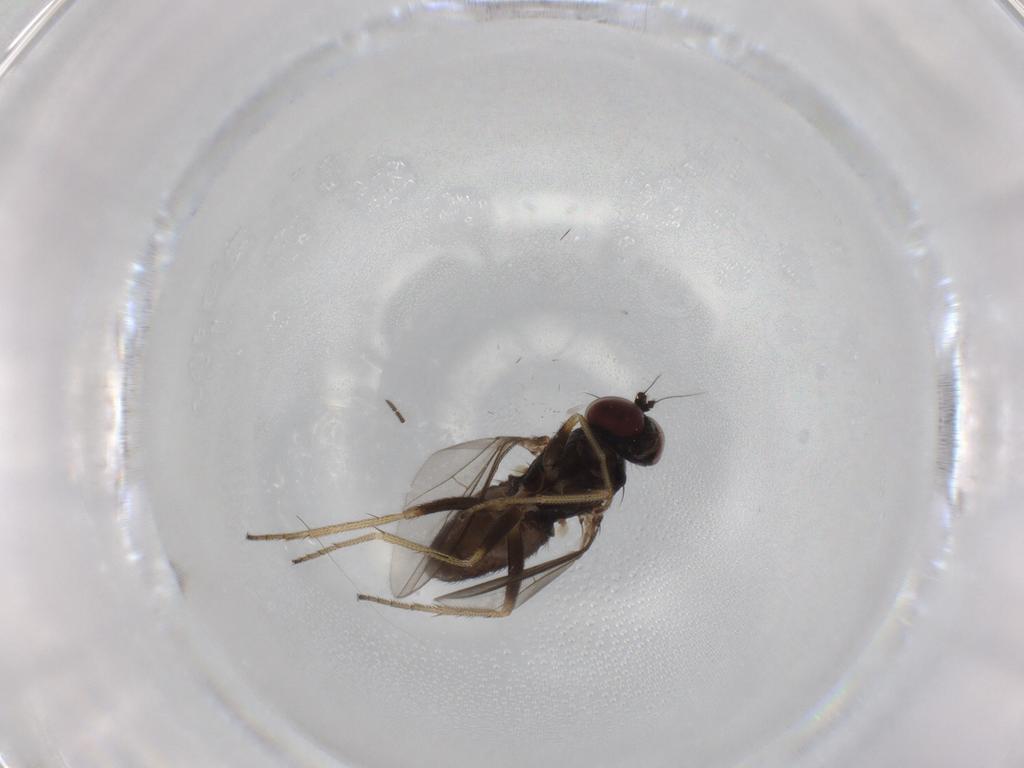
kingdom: Animalia
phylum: Arthropoda
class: Insecta
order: Diptera
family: Dolichopodidae
